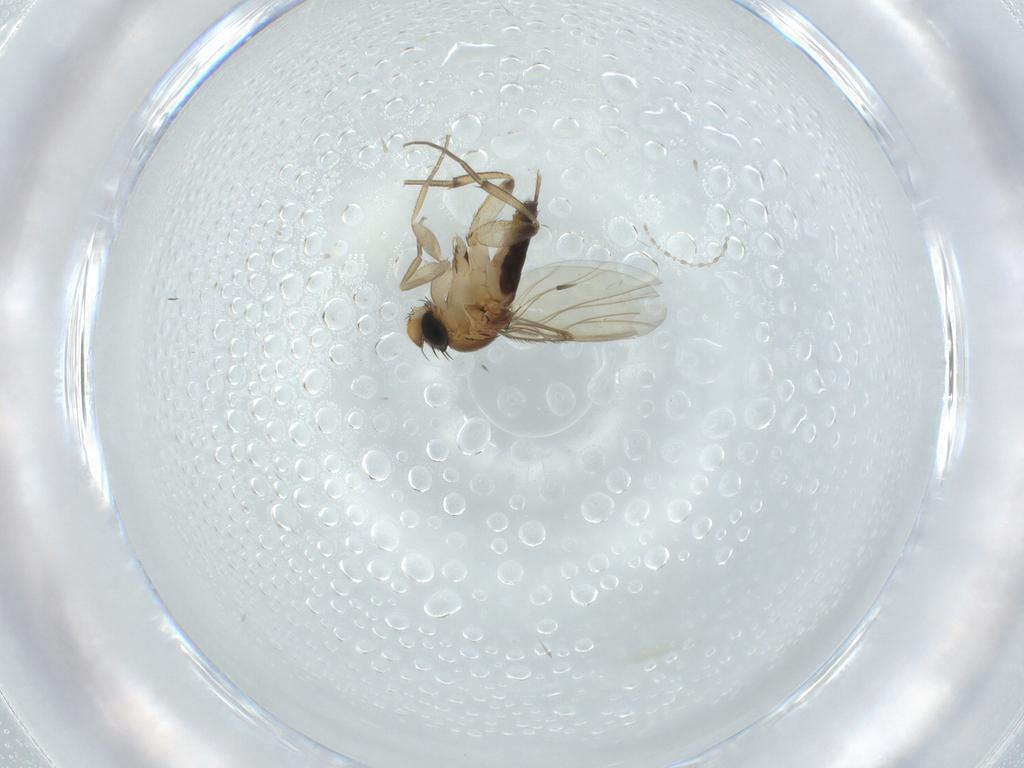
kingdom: Animalia
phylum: Arthropoda
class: Insecta
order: Diptera
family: Cecidomyiidae
